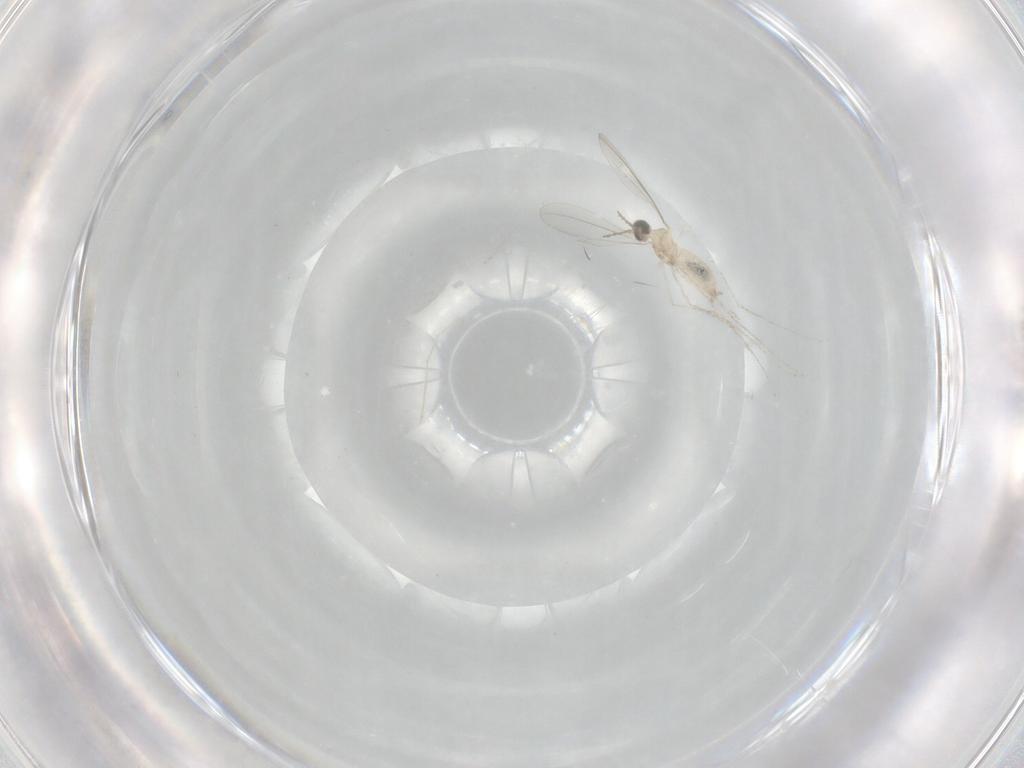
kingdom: Animalia
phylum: Arthropoda
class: Insecta
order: Diptera
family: Cecidomyiidae
